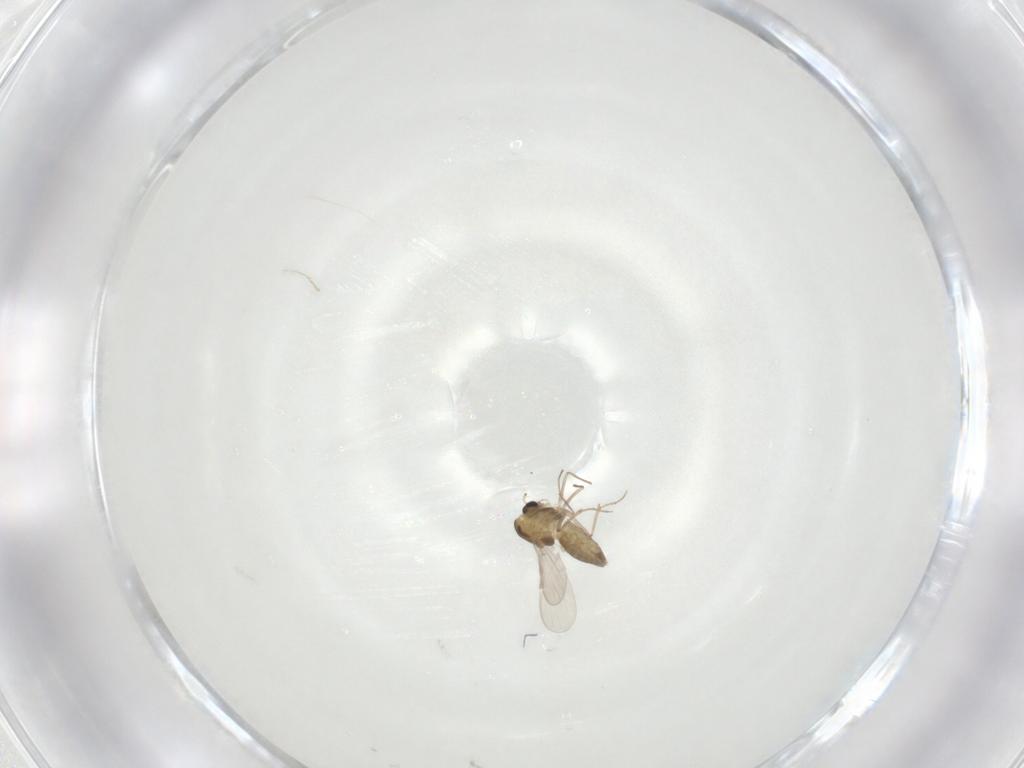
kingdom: Animalia
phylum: Arthropoda
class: Insecta
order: Diptera
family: Chironomidae
